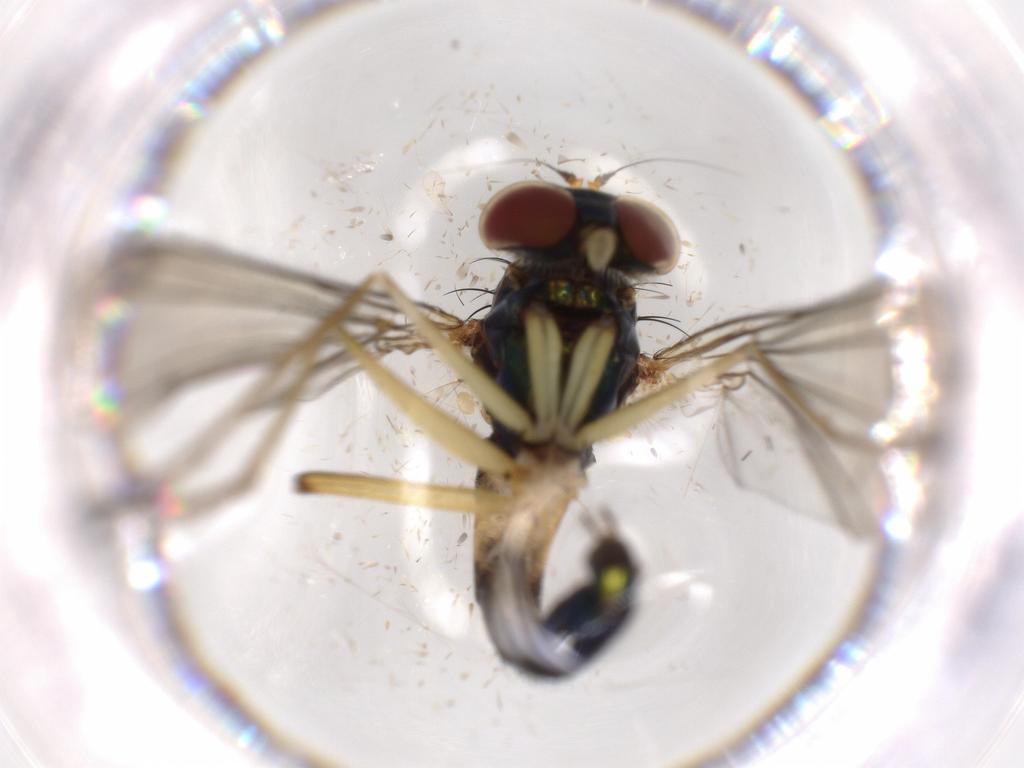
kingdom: Animalia
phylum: Arthropoda
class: Insecta
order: Diptera
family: Dolichopodidae
